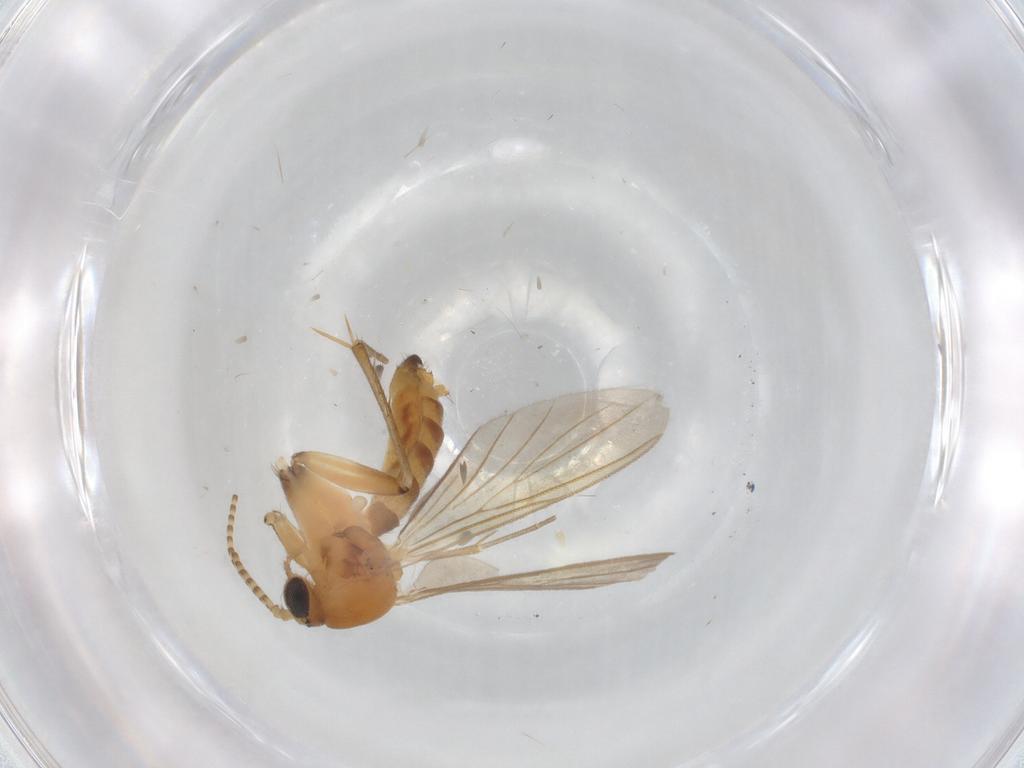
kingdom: Animalia
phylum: Arthropoda
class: Insecta
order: Diptera
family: Mycetophilidae
